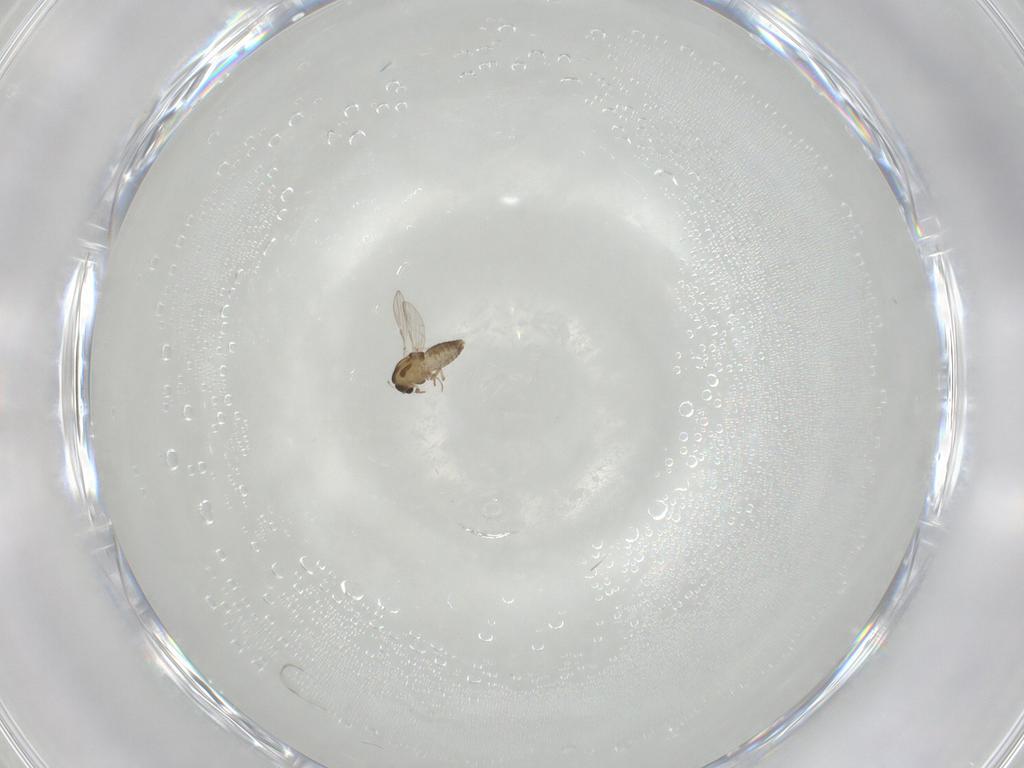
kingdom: Animalia
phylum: Arthropoda
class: Insecta
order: Diptera
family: Chironomidae
